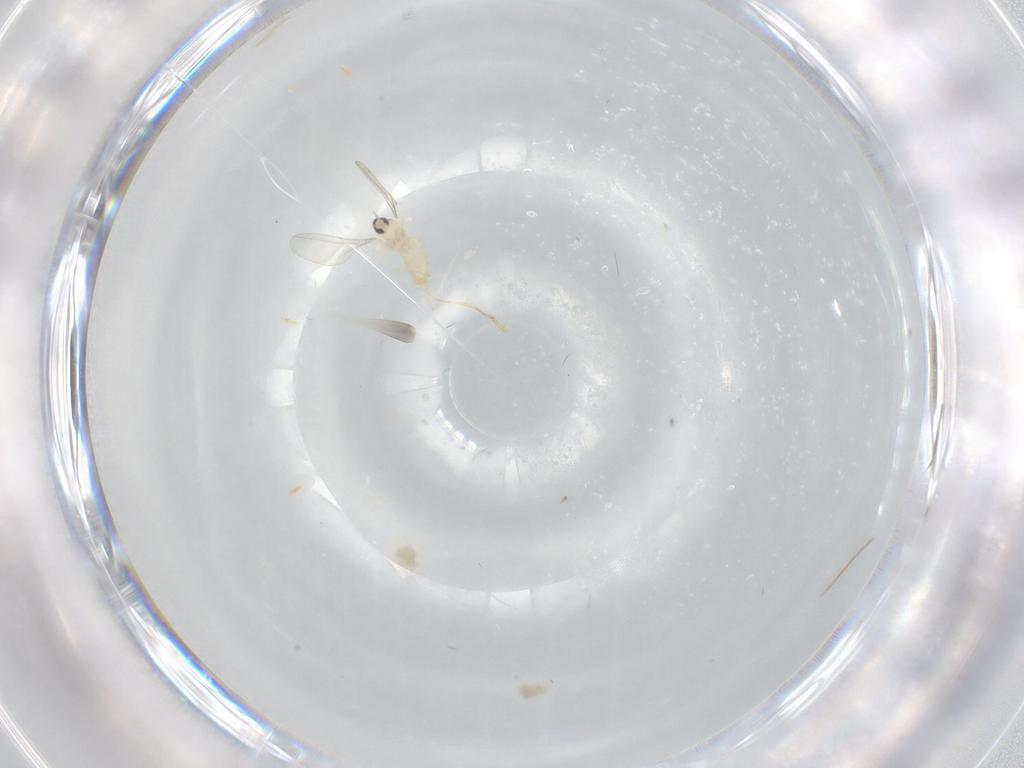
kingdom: Animalia
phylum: Arthropoda
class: Insecta
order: Diptera
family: Cecidomyiidae
